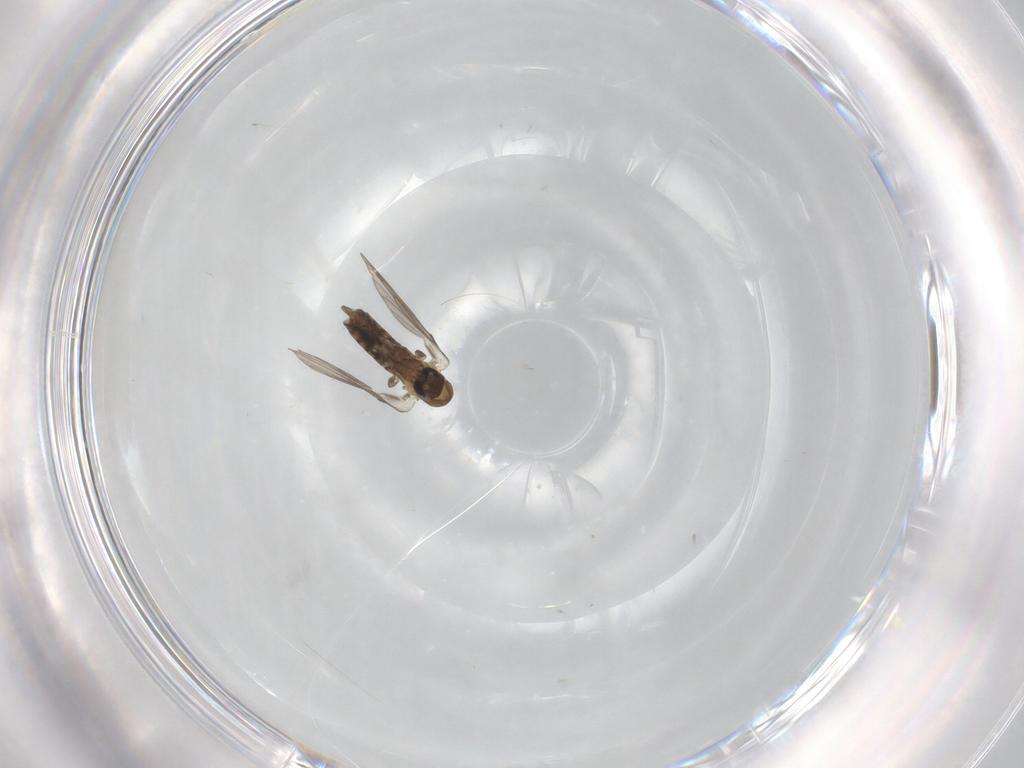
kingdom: Animalia
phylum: Arthropoda
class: Insecta
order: Diptera
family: Psychodidae
